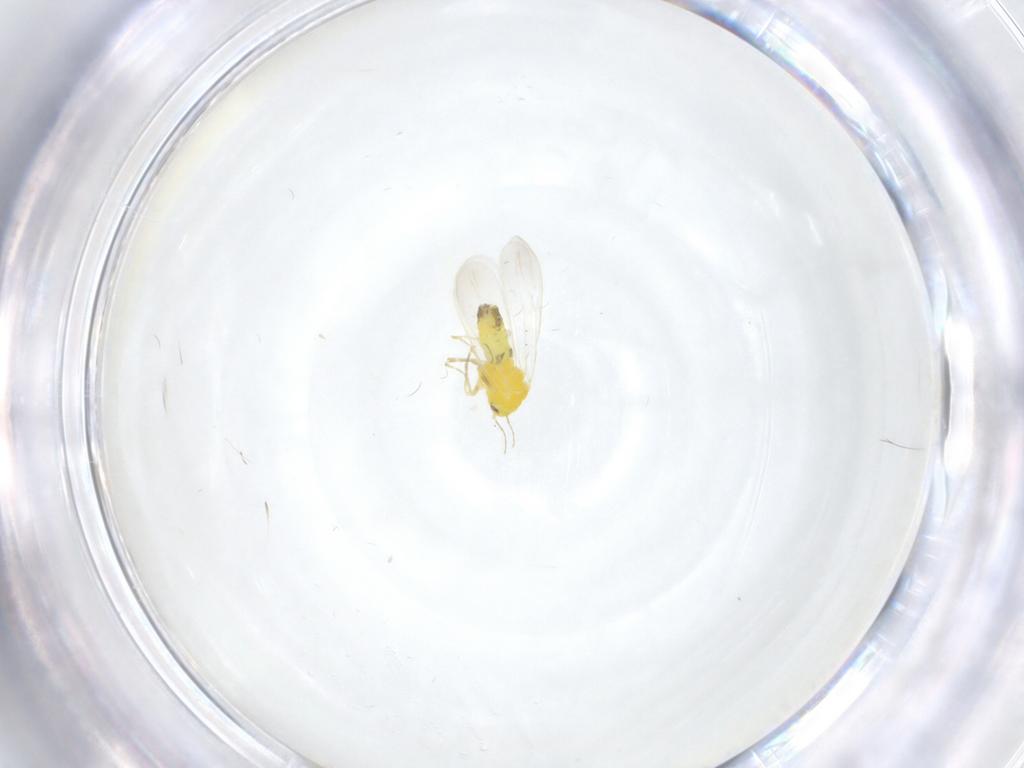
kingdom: Animalia
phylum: Arthropoda
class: Insecta
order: Hemiptera
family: Aleyrodidae
